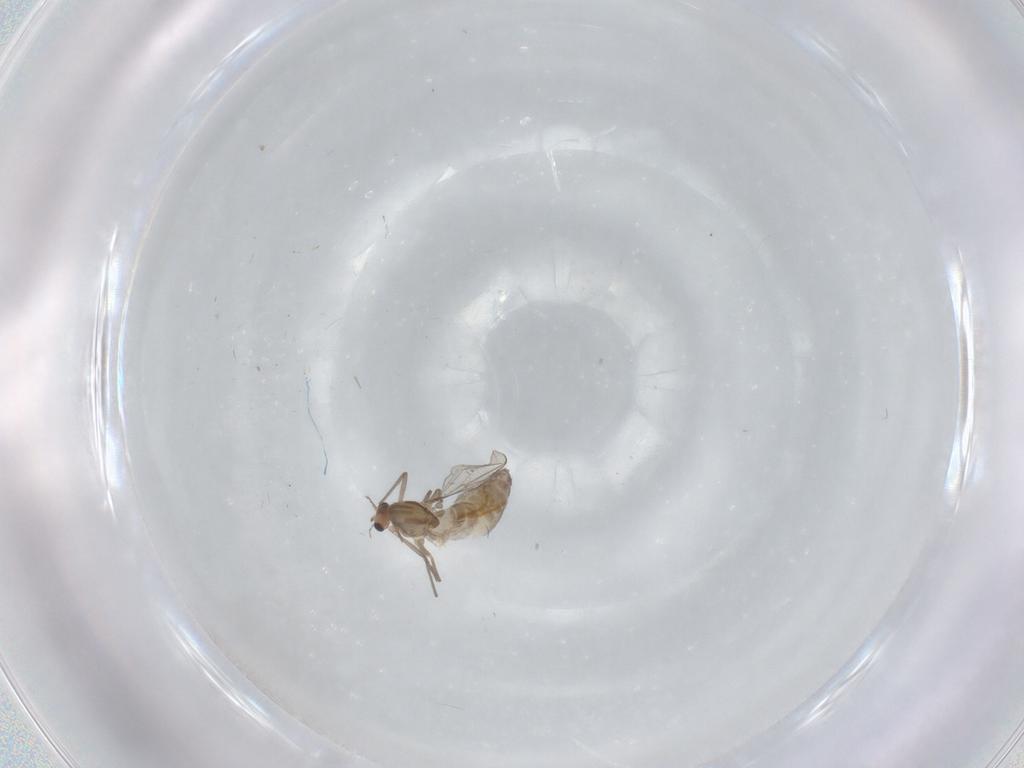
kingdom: Animalia
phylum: Arthropoda
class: Insecta
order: Diptera
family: Chironomidae
